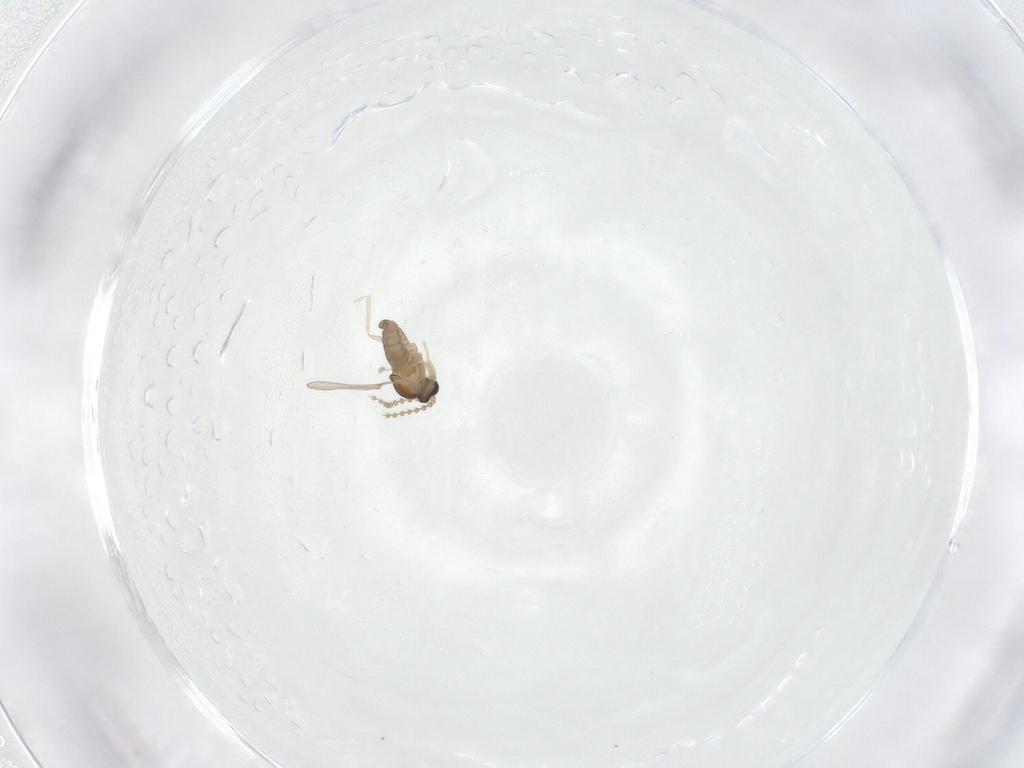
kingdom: Animalia
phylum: Arthropoda
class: Insecta
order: Diptera
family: Cecidomyiidae
